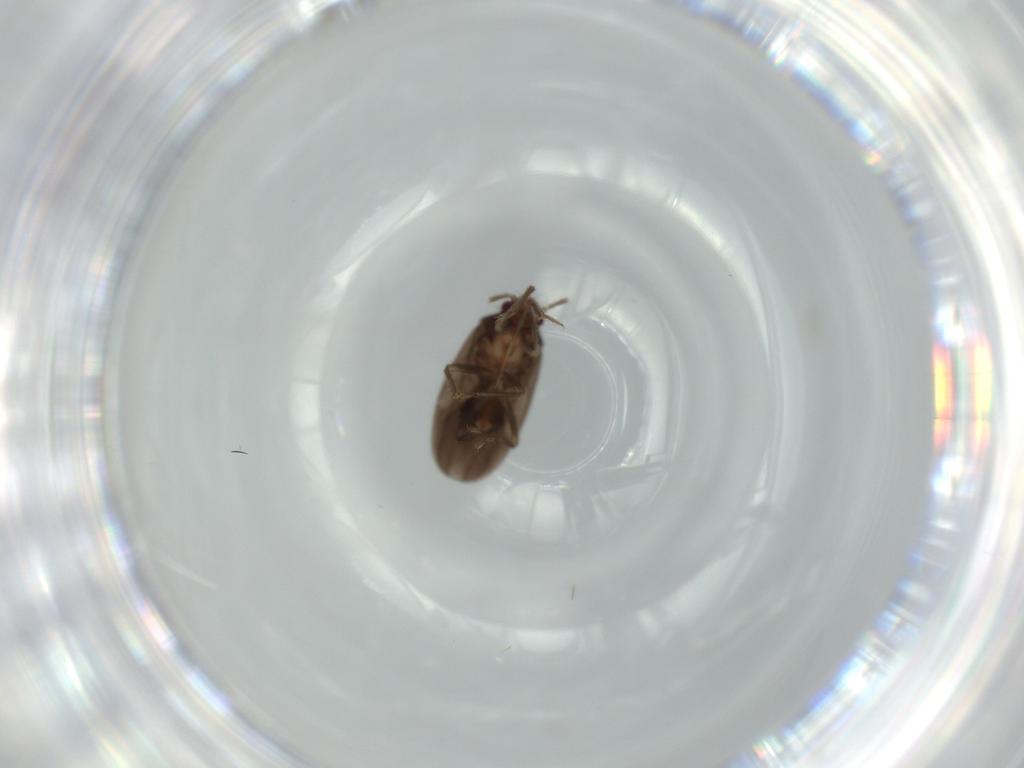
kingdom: Animalia
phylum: Arthropoda
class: Insecta
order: Hemiptera
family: Ceratocombidae
